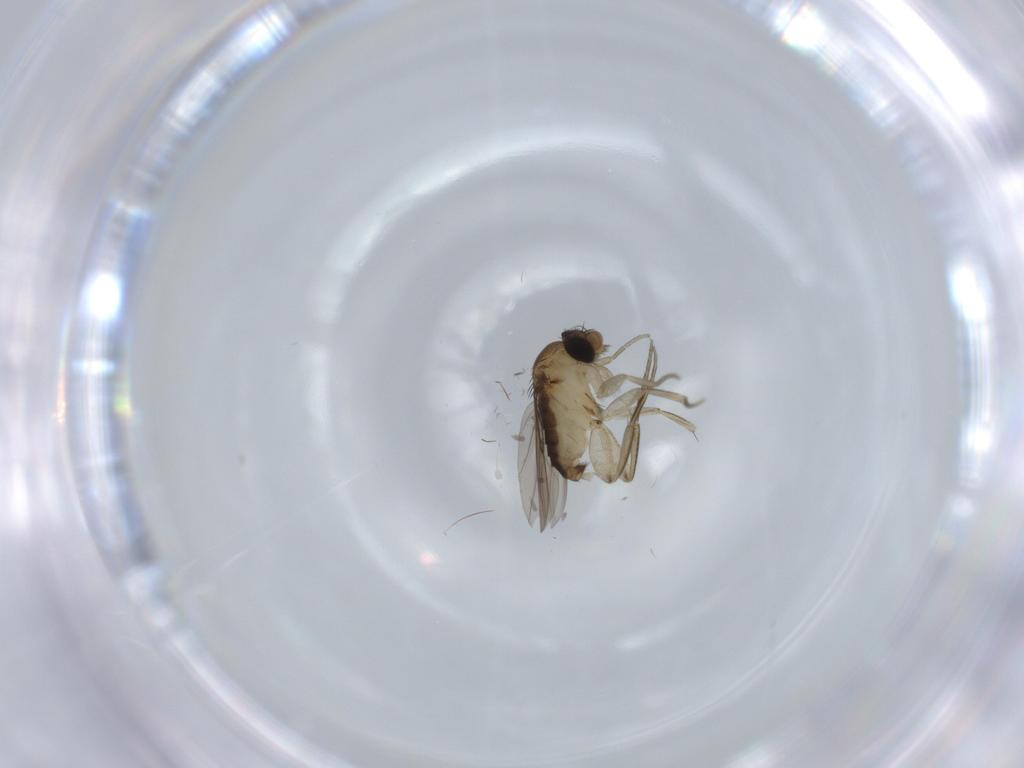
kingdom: Animalia
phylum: Arthropoda
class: Insecta
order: Diptera
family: Phoridae
